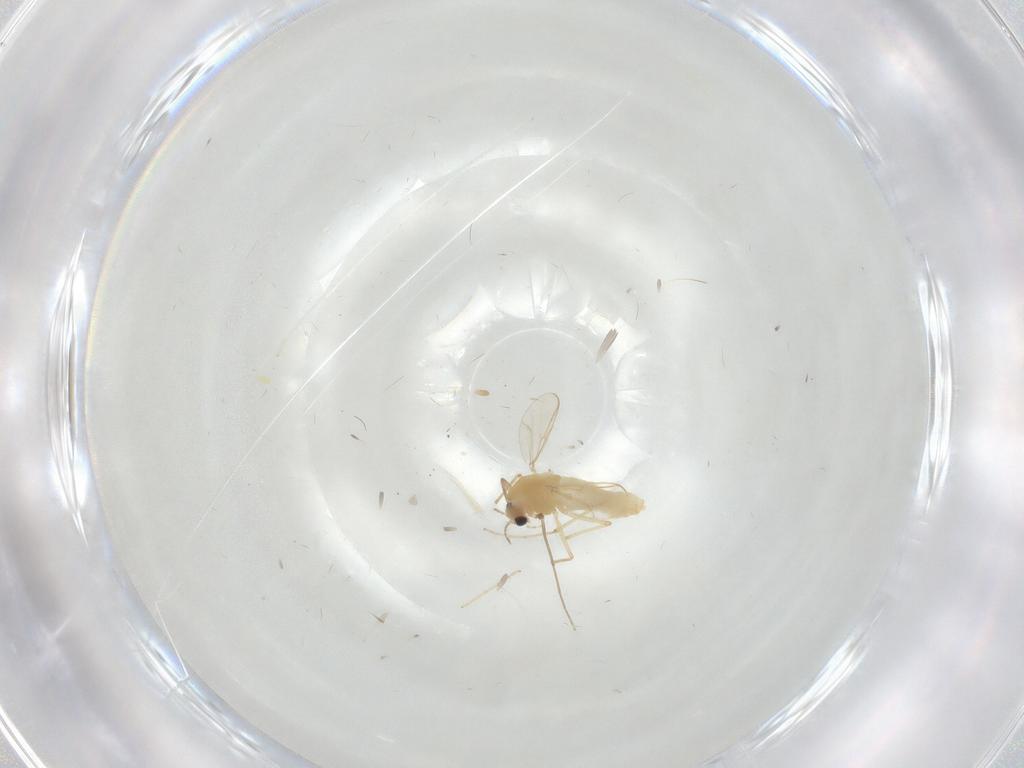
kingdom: Animalia
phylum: Arthropoda
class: Insecta
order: Diptera
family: Chironomidae
